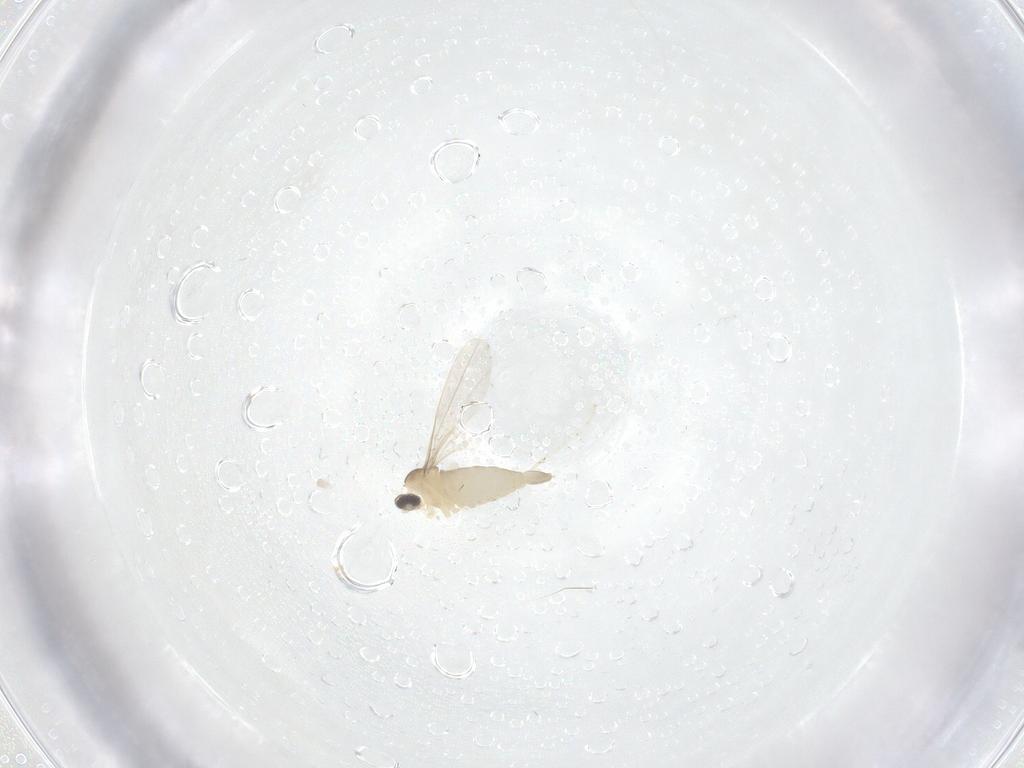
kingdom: Animalia
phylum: Arthropoda
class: Insecta
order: Diptera
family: Cecidomyiidae
